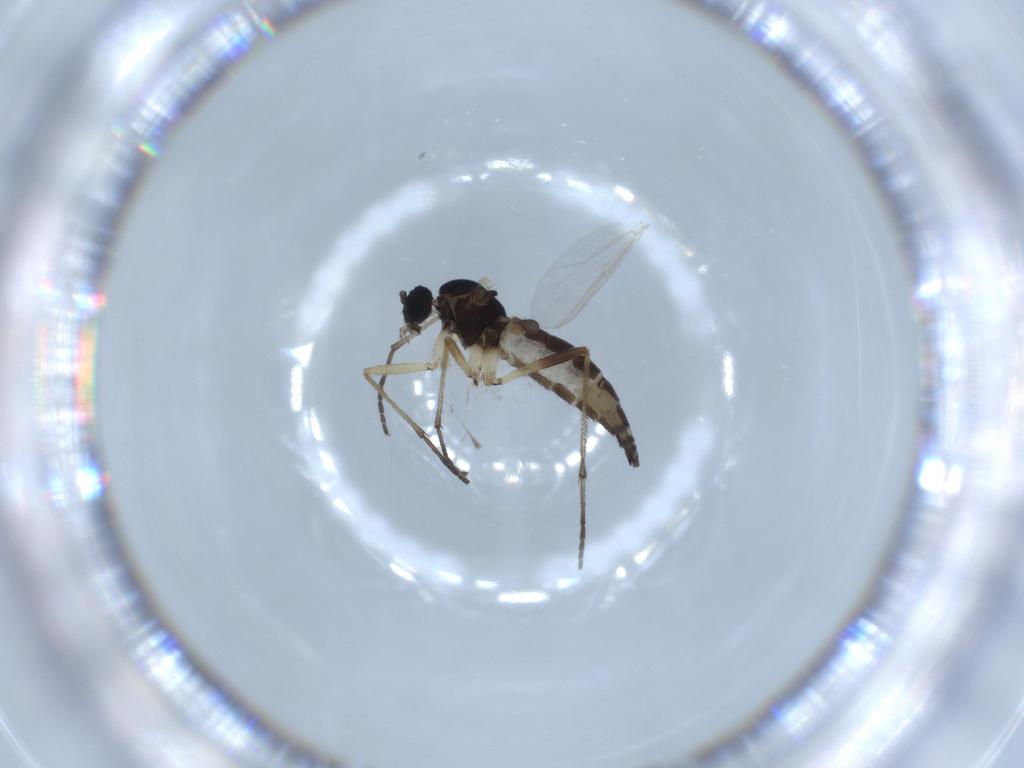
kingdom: Animalia
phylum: Arthropoda
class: Insecta
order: Diptera
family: Sciaridae
